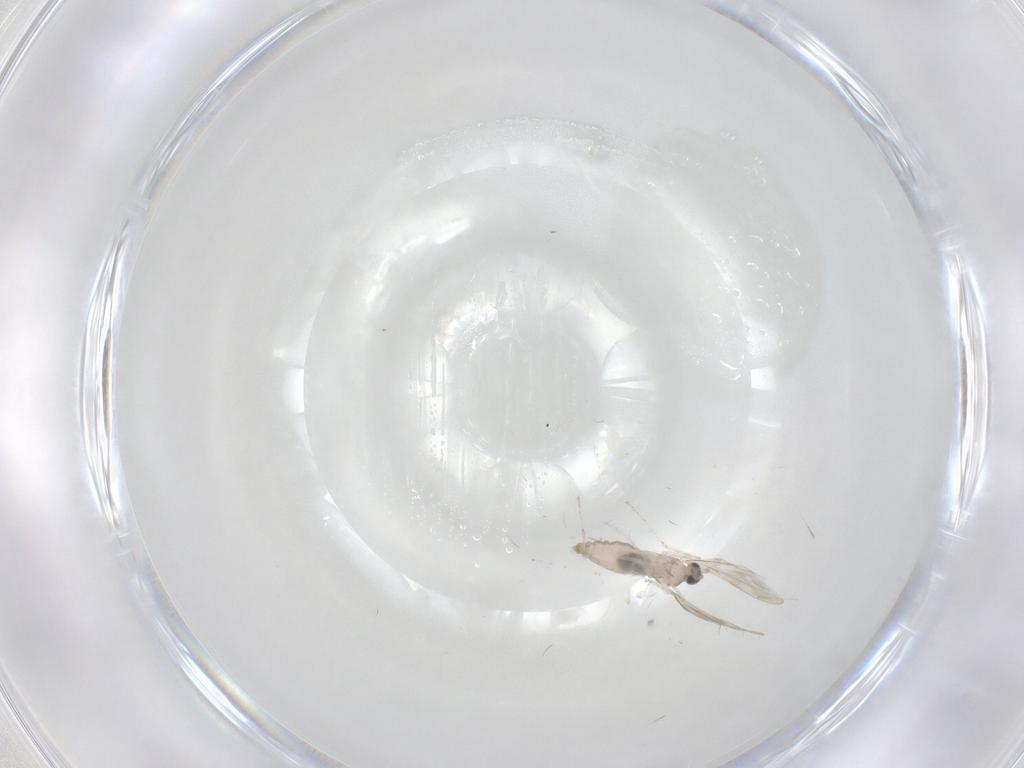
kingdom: Animalia
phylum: Arthropoda
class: Insecta
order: Diptera
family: Cecidomyiidae
